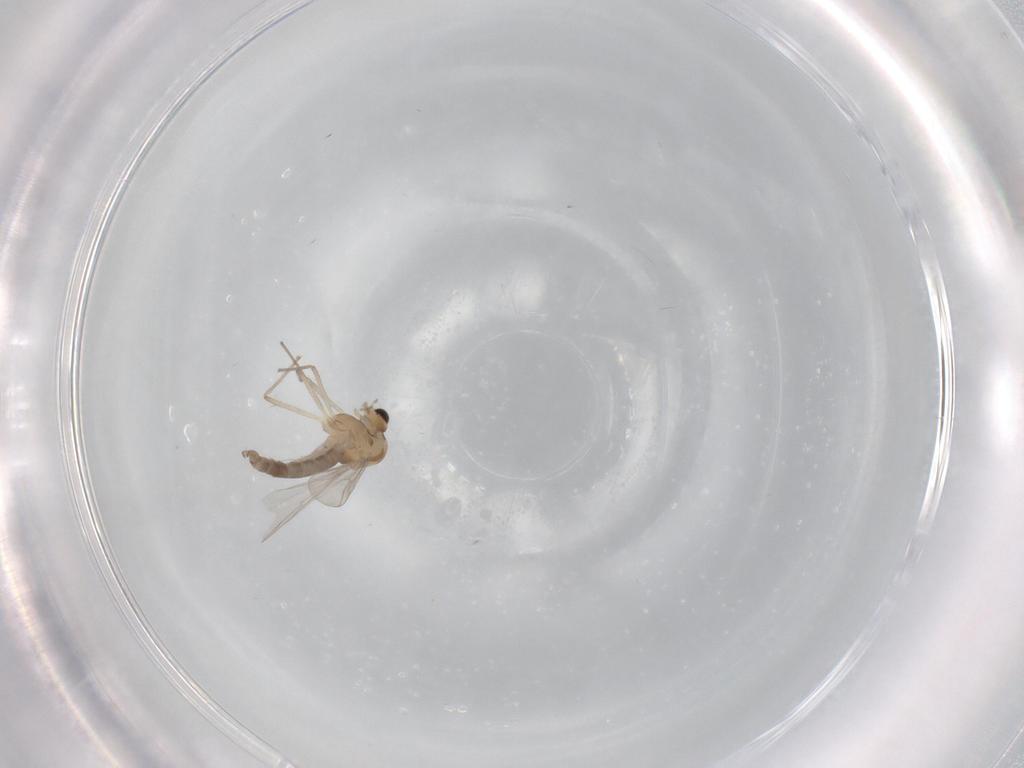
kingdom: Animalia
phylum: Arthropoda
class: Insecta
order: Diptera
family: Chironomidae
